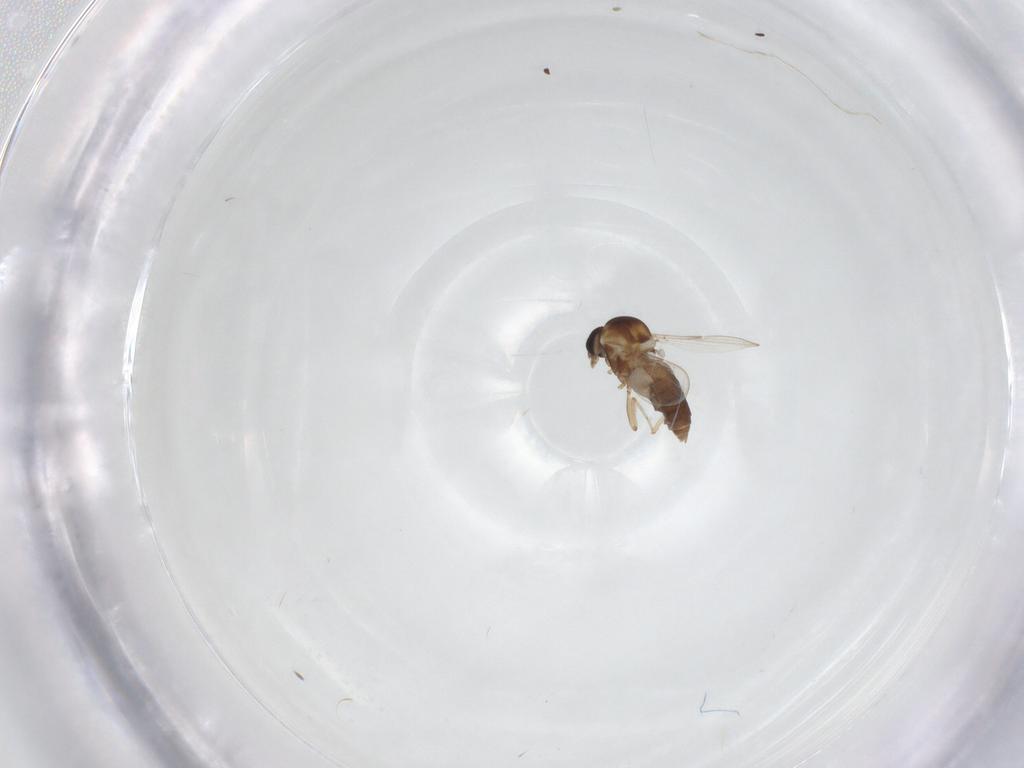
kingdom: Animalia
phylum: Arthropoda
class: Insecta
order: Diptera
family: Ceratopogonidae
